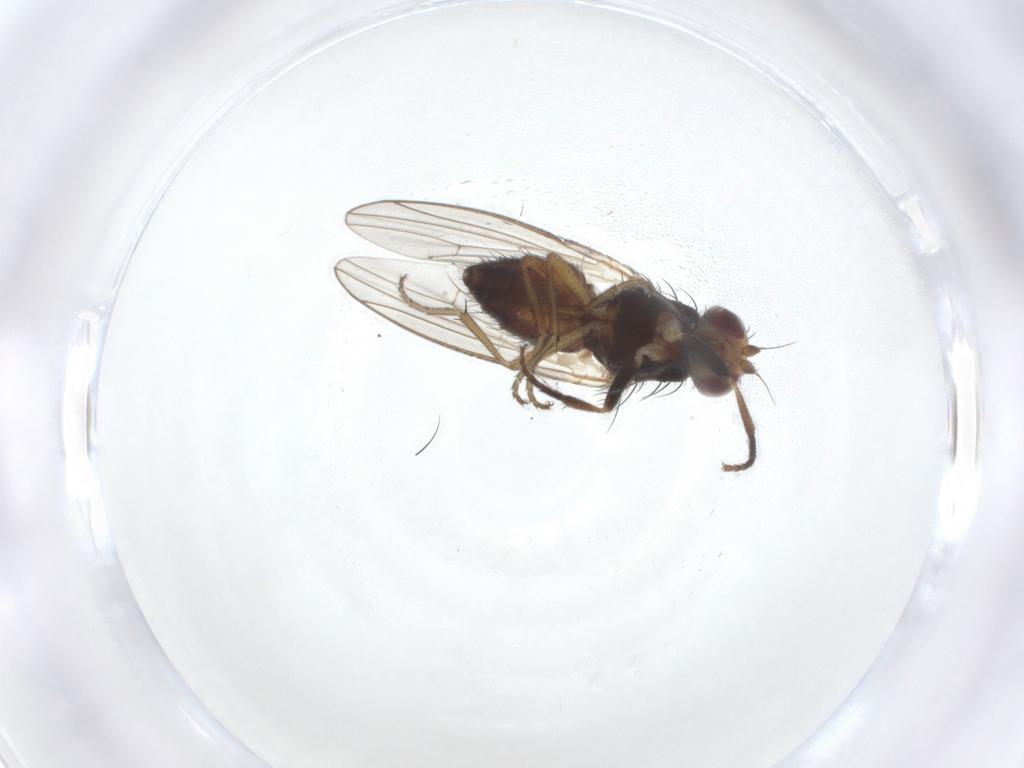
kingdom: Animalia
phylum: Arthropoda
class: Insecta
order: Diptera
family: Heleomyzidae
